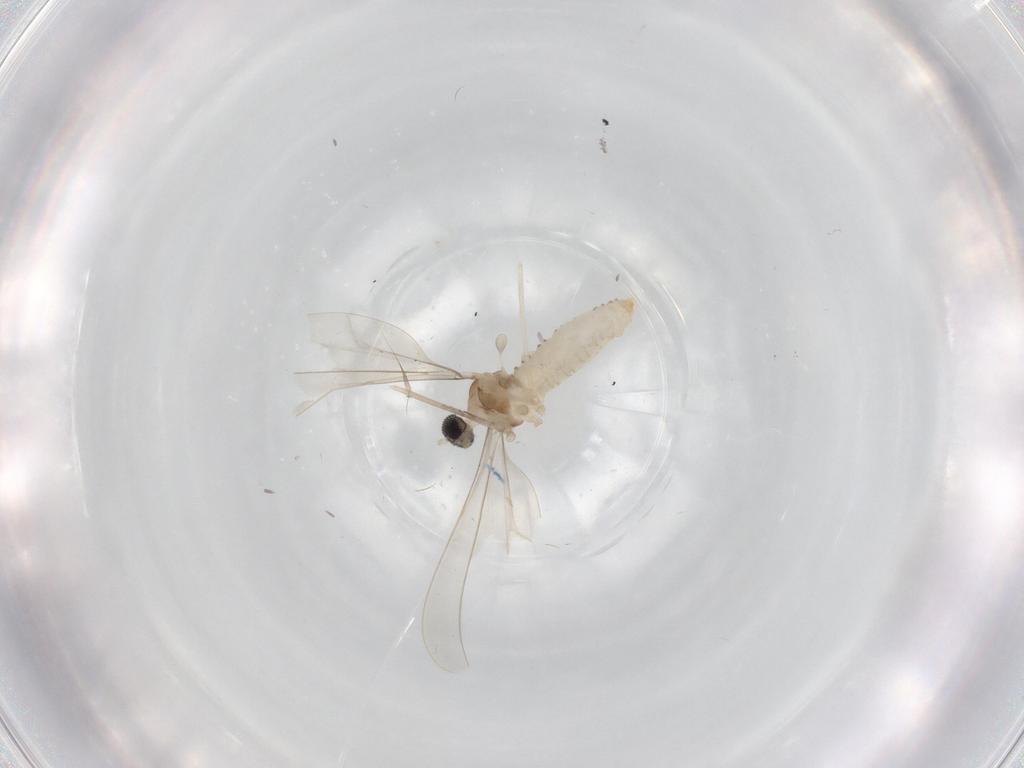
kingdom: Animalia
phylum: Arthropoda
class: Insecta
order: Diptera
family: Cecidomyiidae
